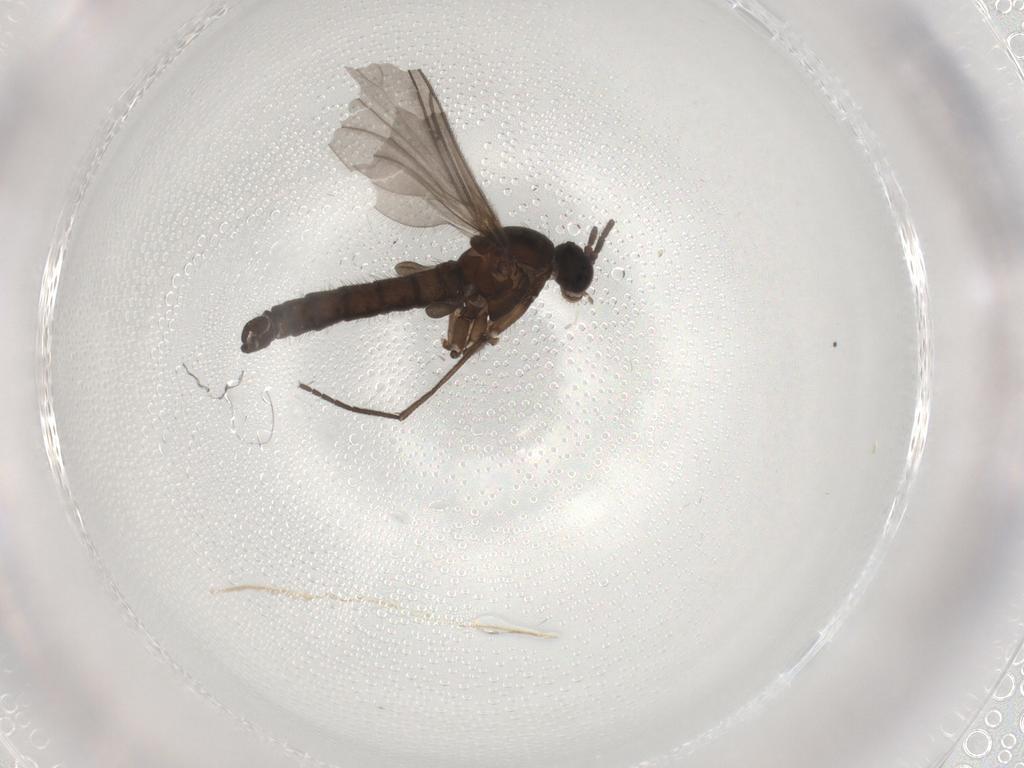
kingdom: Animalia
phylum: Arthropoda
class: Insecta
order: Diptera
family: Sciaridae
